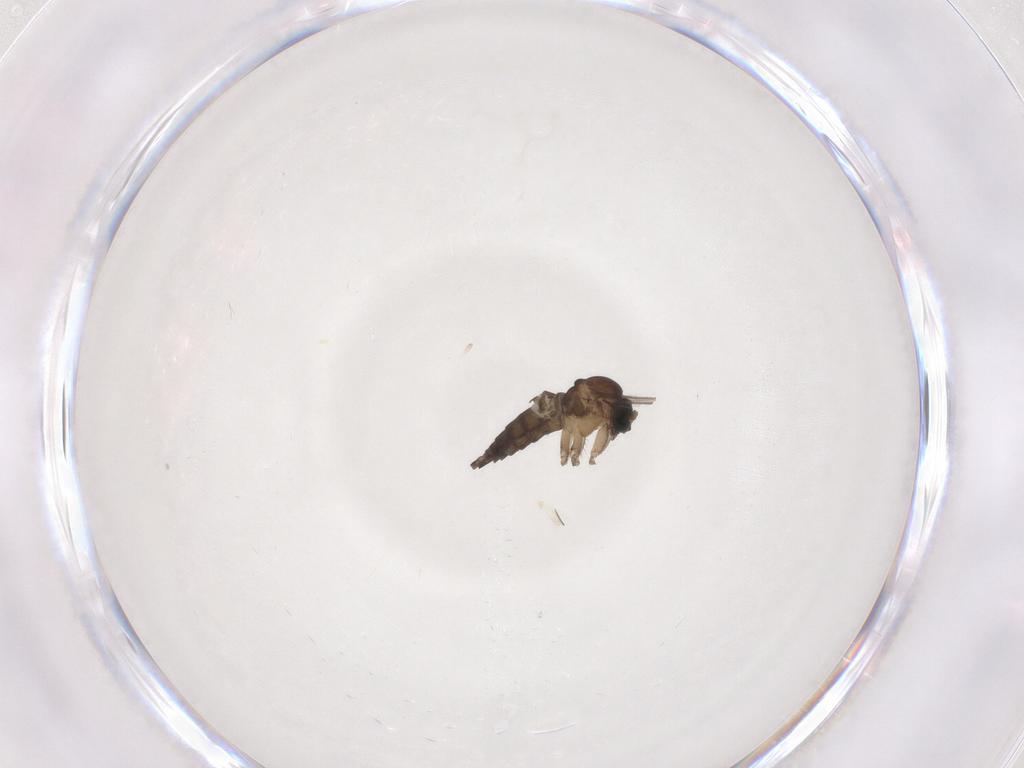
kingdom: Animalia
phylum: Arthropoda
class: Insecta
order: Diptera
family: Sciaridae
